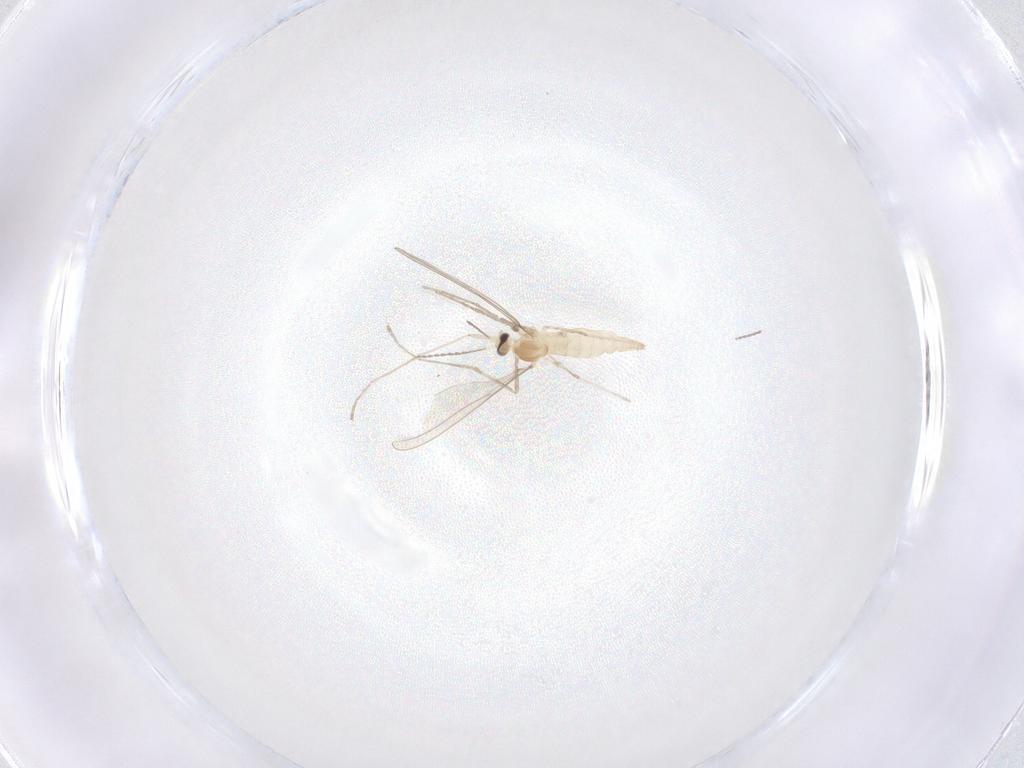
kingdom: Animalia
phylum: Arthropoda
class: Insecta
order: Diptera
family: Cecidomyiidae
